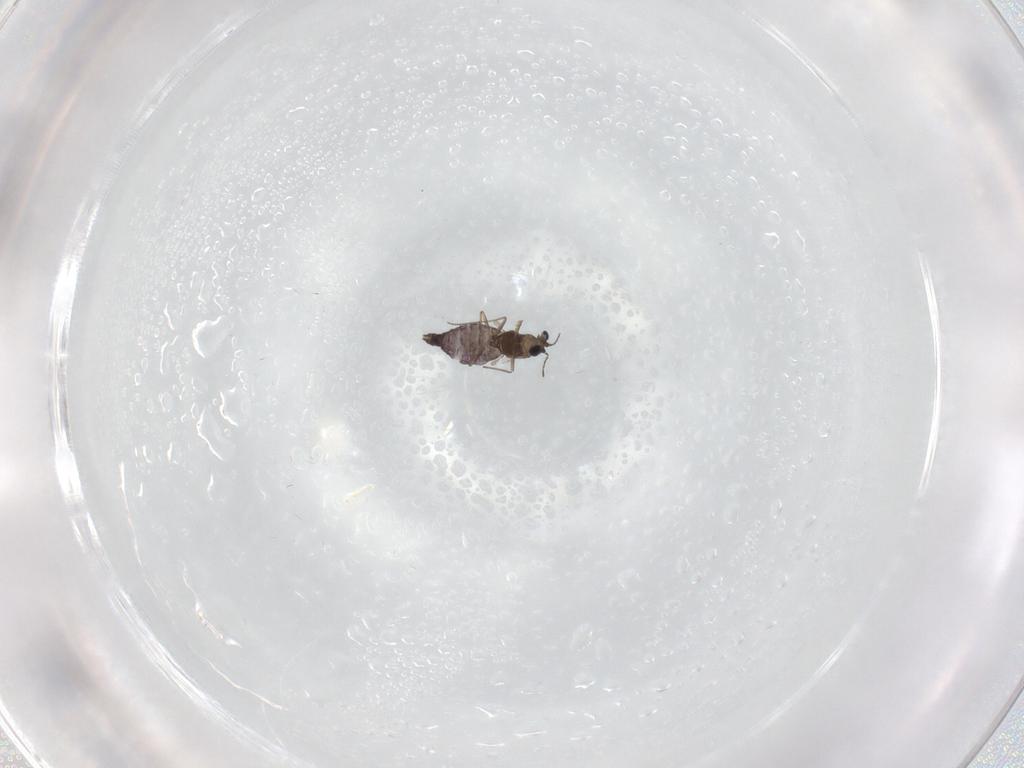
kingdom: Animalia
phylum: Arthropoda
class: Insecta
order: Diptera
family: Chironomidae
